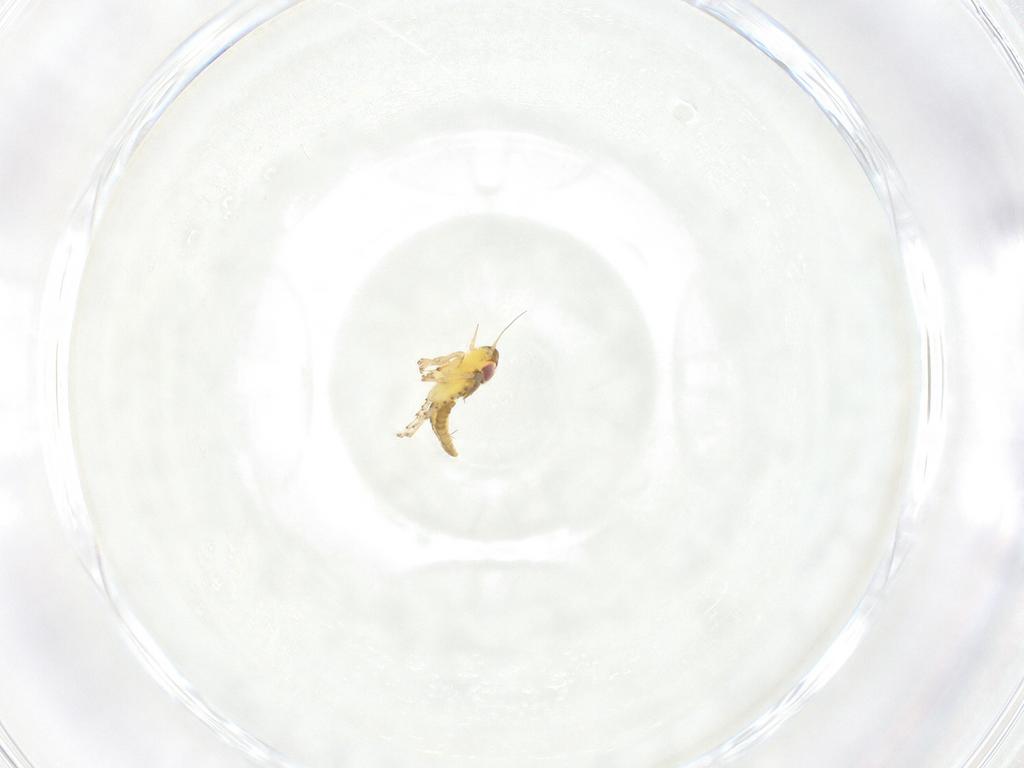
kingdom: Animalia
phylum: Arthropoda
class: Insecta
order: Hemiptera
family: Cicadellidae
